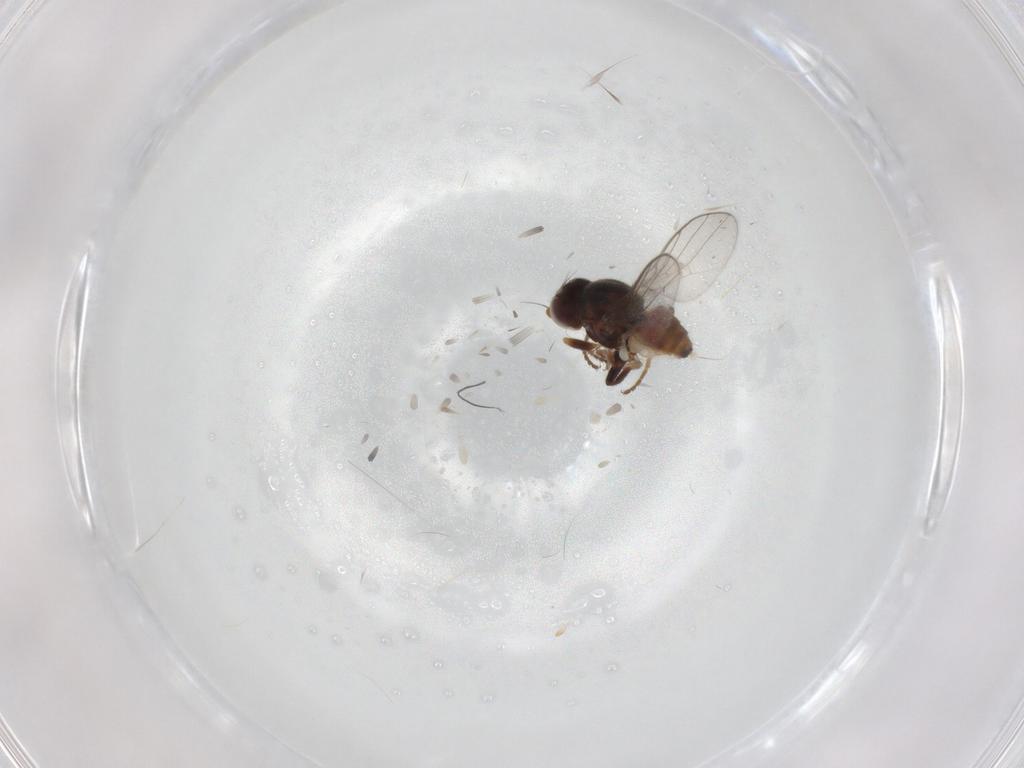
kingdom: Animalia
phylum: Arthropoda
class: Insecta
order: Diptera
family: Chloropidae
